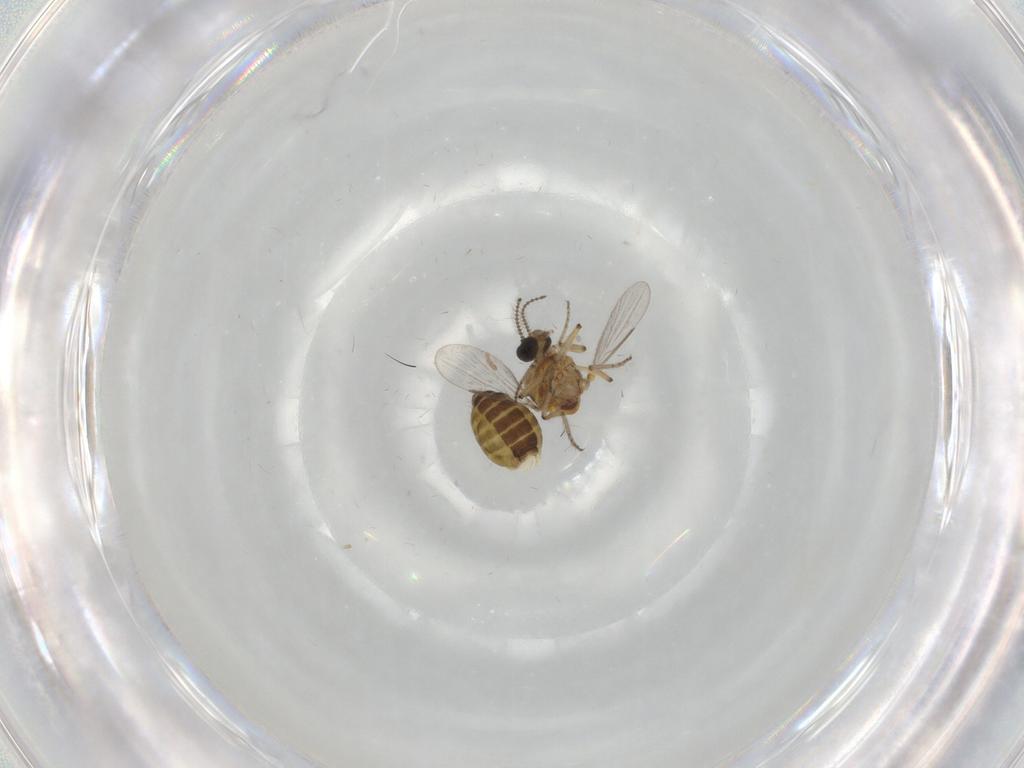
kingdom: Animalia
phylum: Arthropoda
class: Insecta
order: Diptera
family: Ceratopogonidae
